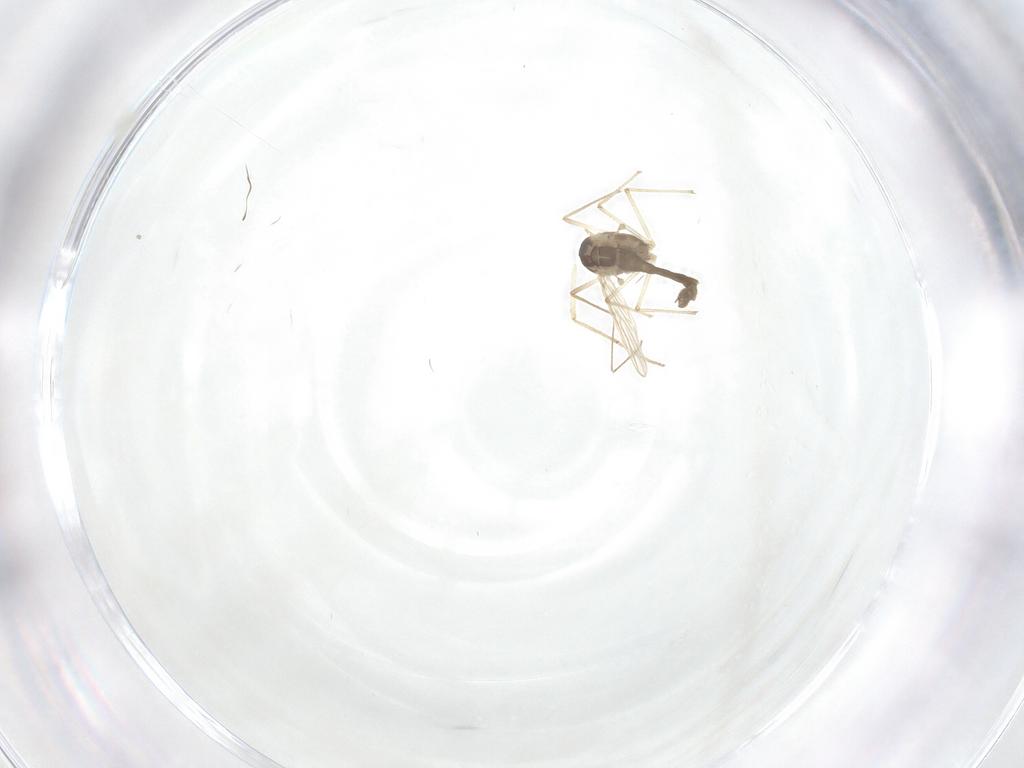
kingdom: Animalia
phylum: Arthropoda
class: Insecta
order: Diptera
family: Chironomidae
